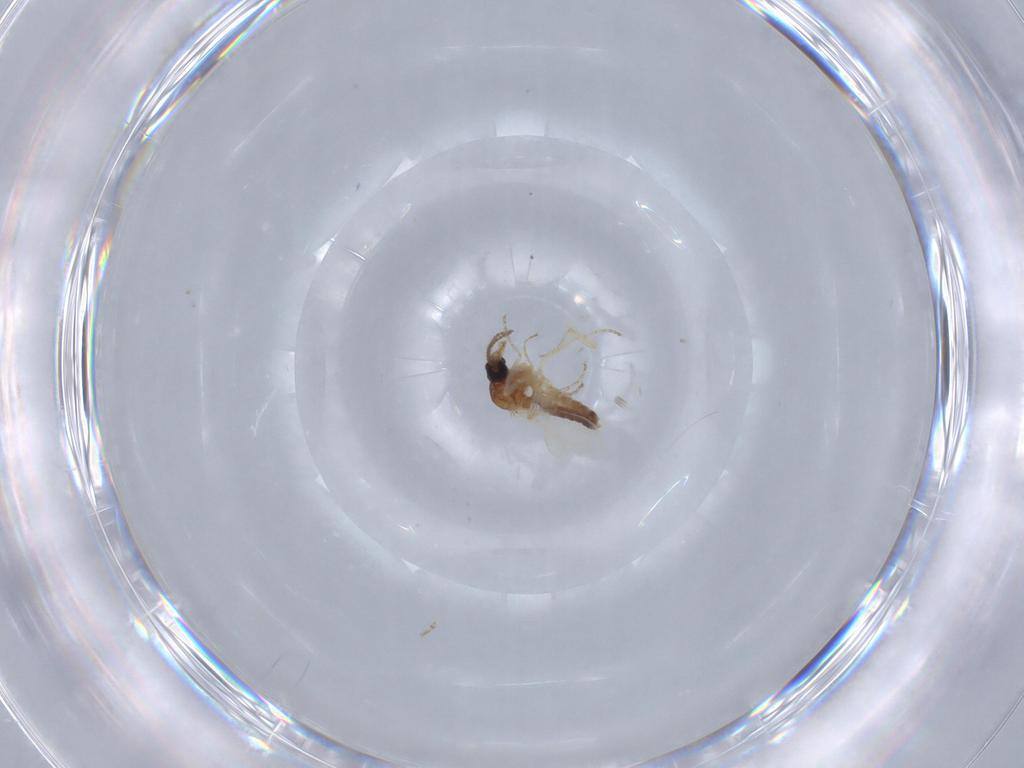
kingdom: Animalia
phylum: Arthropoda
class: Insecta
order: Diptera
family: Ceratopogonidae
